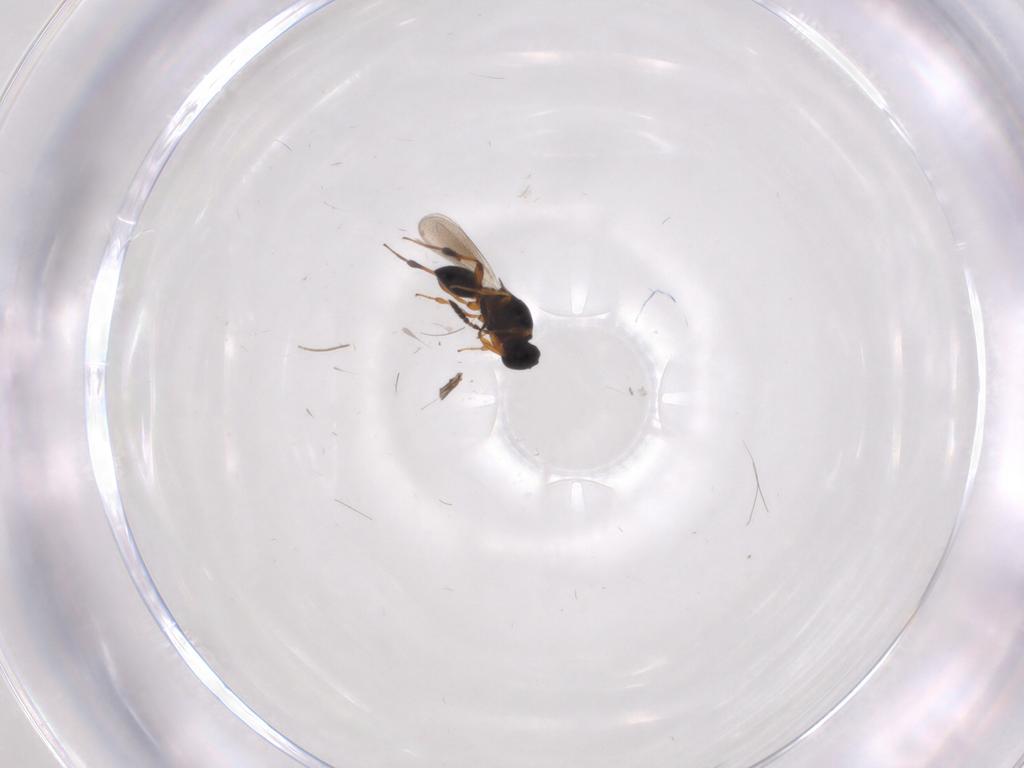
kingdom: Animalia
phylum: Arthropoda
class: Insecta
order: Hymenoptera
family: Platygastridae
